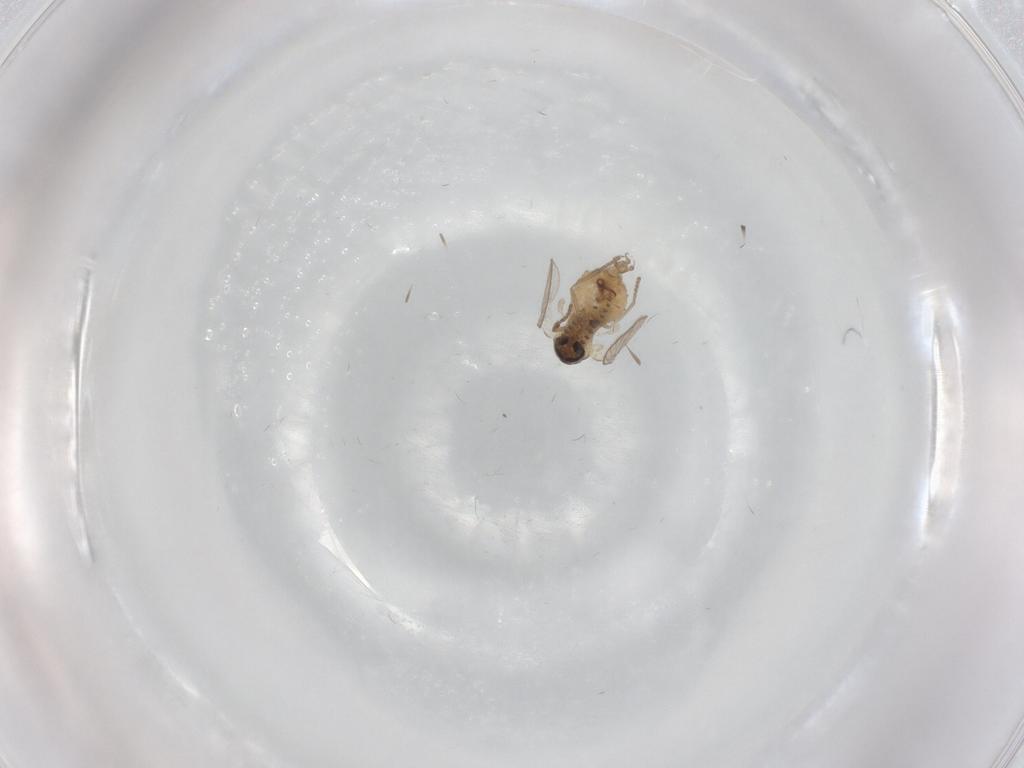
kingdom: Animalia
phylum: Arthropoda
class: Insecta
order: Diptera
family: Psychodidae
